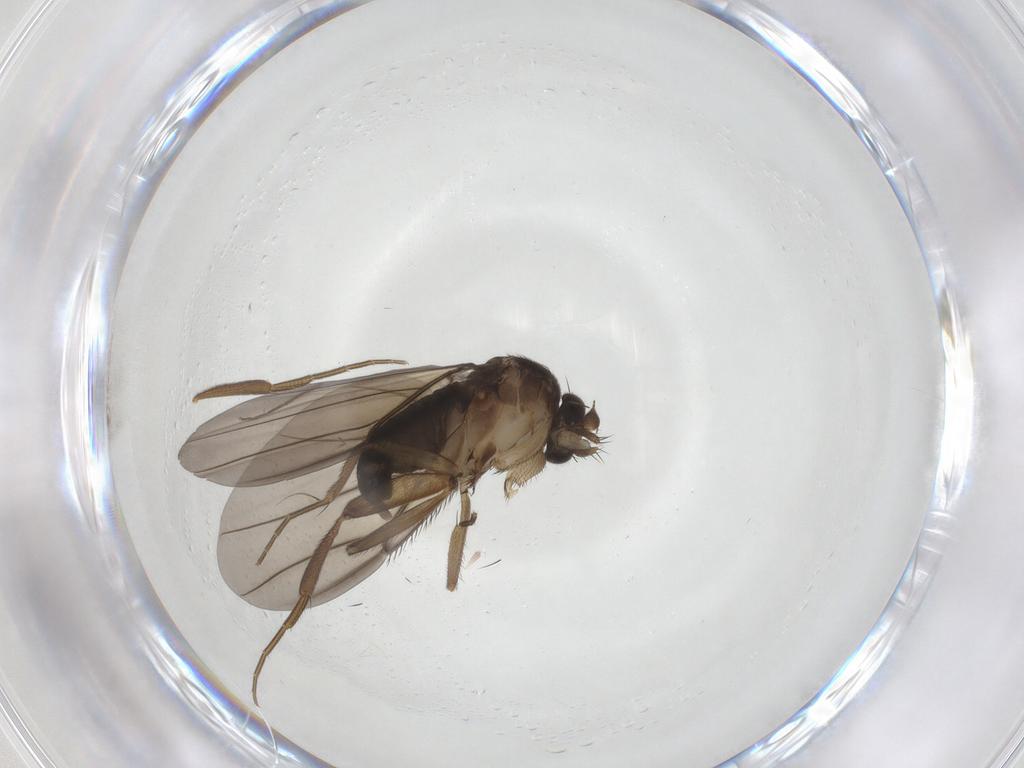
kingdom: Animalia
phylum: Arthropoda
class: Insecta
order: Diptera
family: Phoridae
